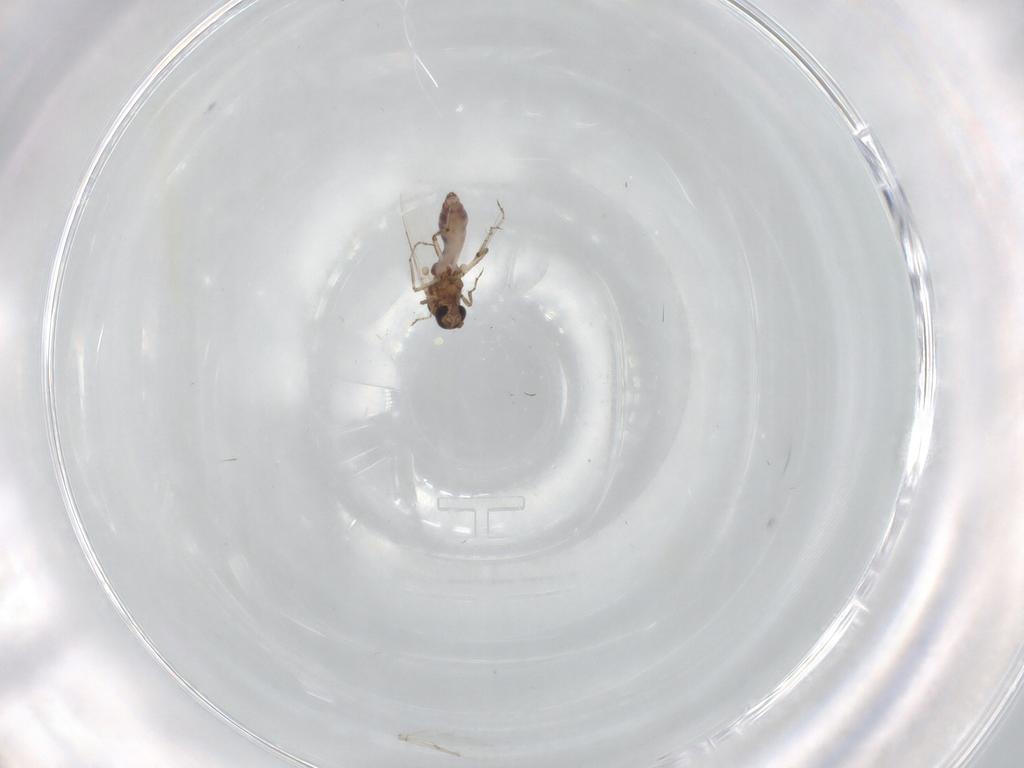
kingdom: Animalia
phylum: Arthropoda
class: Insecta
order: Diptera
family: Ceratopogonidae
